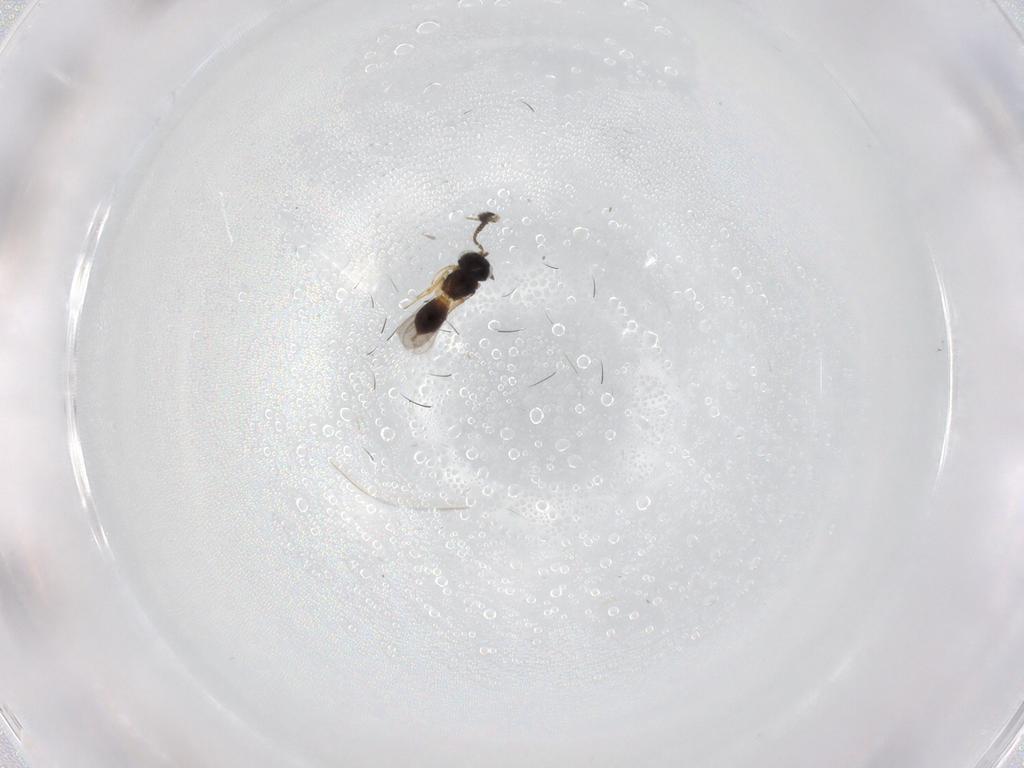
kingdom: Animalia
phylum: Arthropoda
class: Insecta
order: Hymenoptera
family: Scelionidae
